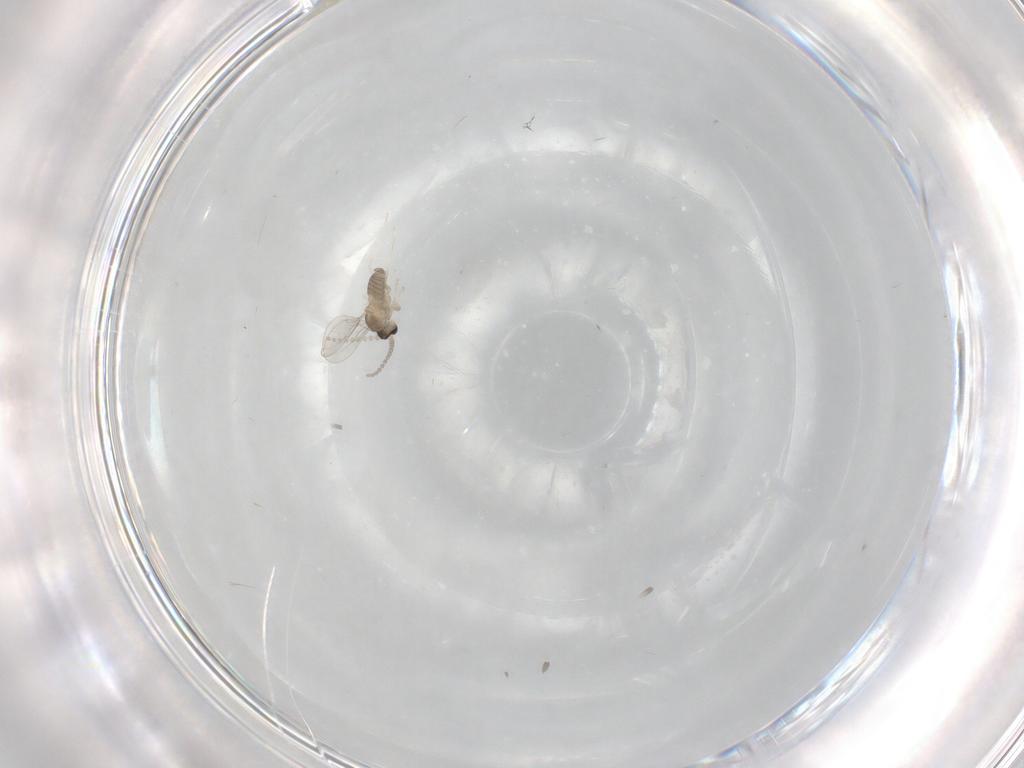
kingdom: Animalia
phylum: Arthropoda
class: Insecta
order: Diptera
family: Cecidomyiidae
